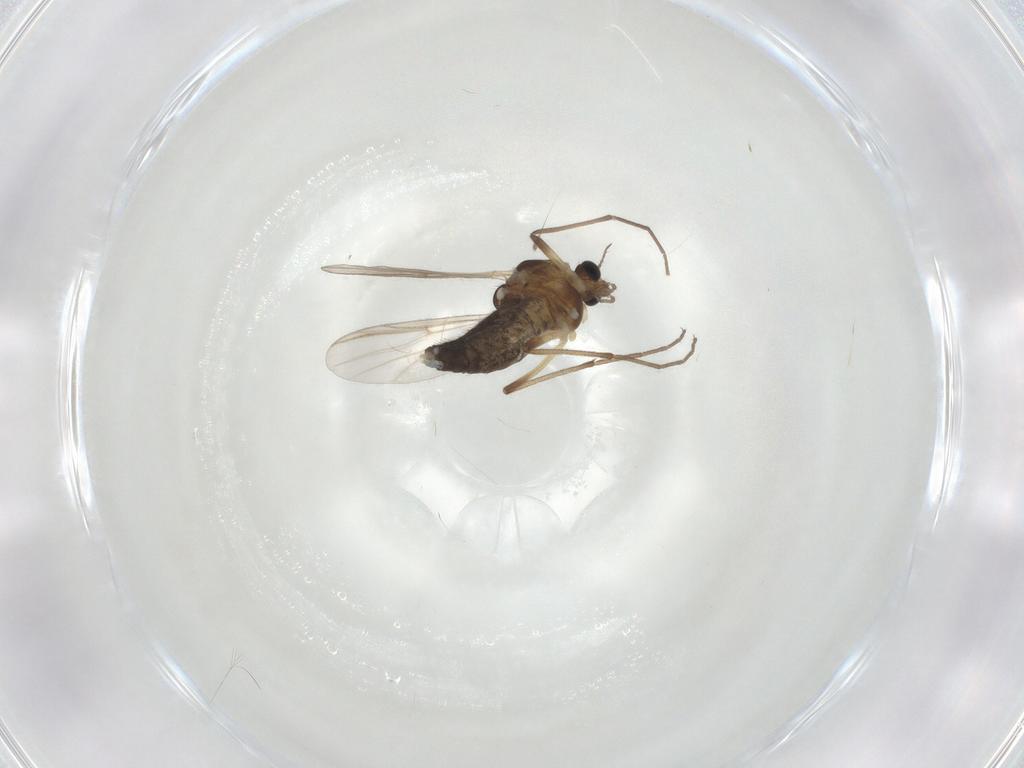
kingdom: Animalia
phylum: Arthropoda
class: Insecta
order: Diptera
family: Chironomidae
